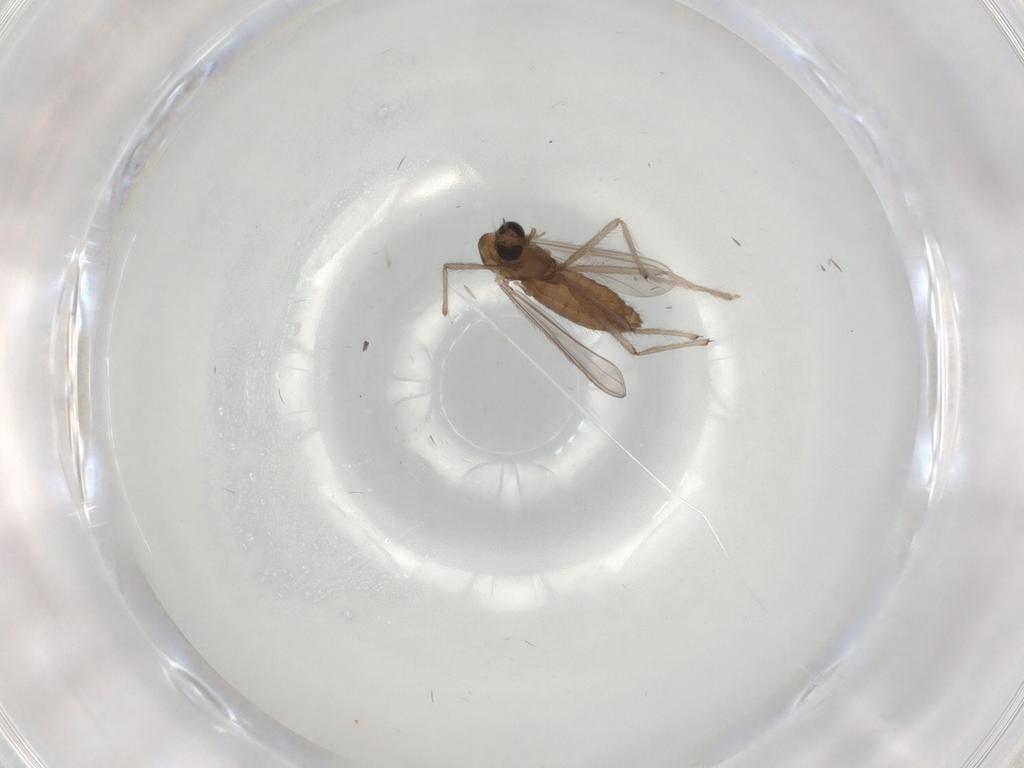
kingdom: Animalia
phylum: Arthropoda
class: Insecta
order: Diptera
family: Chironomidae
